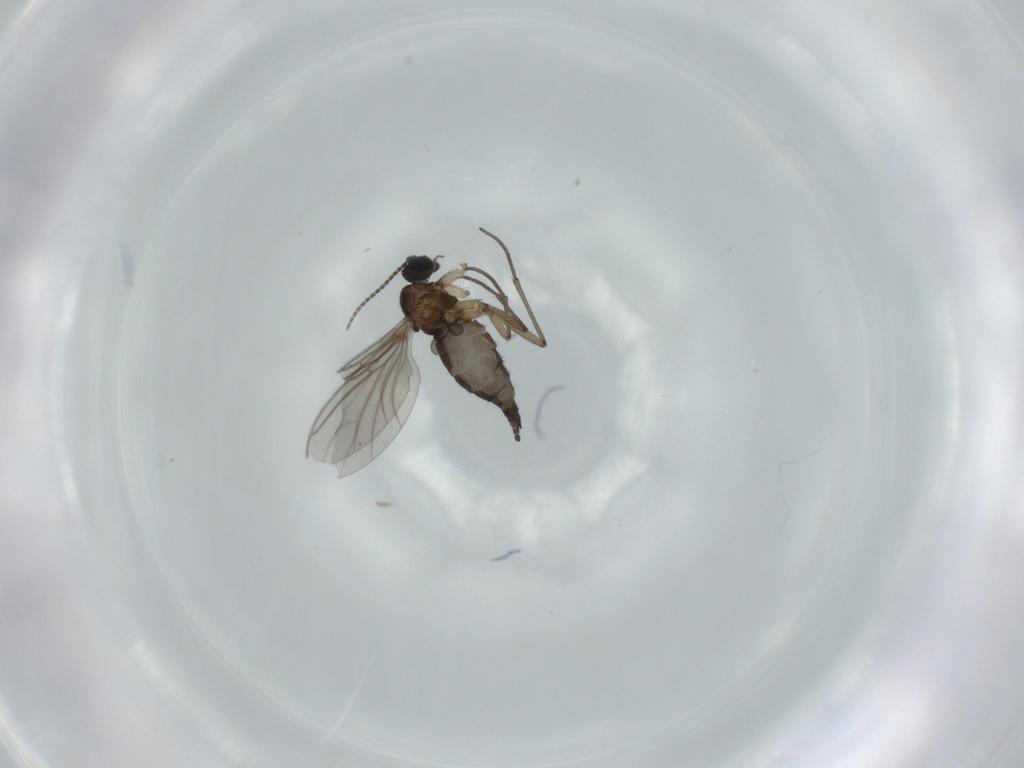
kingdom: Animalia
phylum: Arthropoda
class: Insecta
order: Diptera
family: Sciaridae
